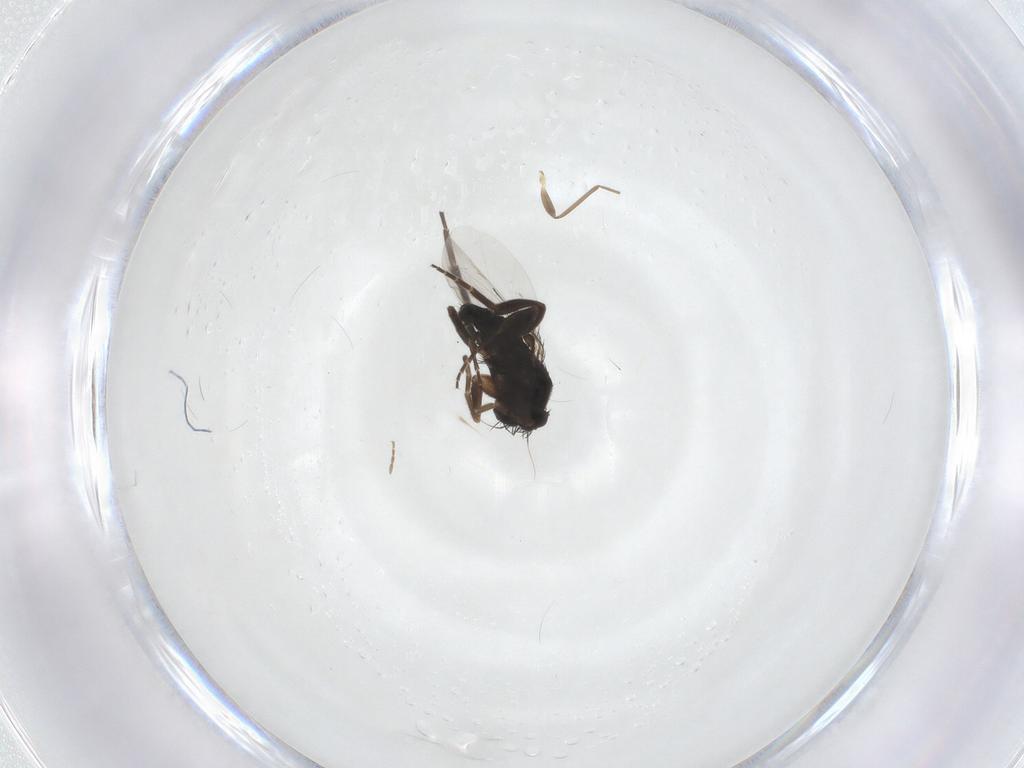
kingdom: Animalia
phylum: Arthropoda
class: Insecta
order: Diptera
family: Phoridae
